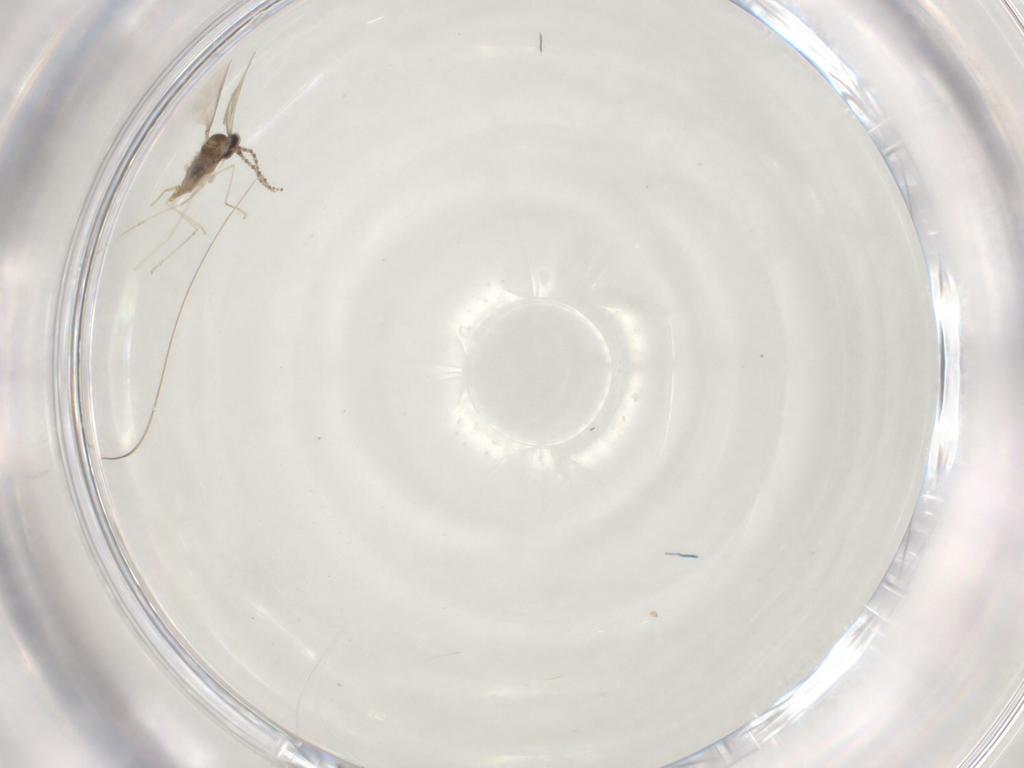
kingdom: Animalia
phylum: Arthropoda
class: Insecta
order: Diptera
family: Cecidomyiidae
